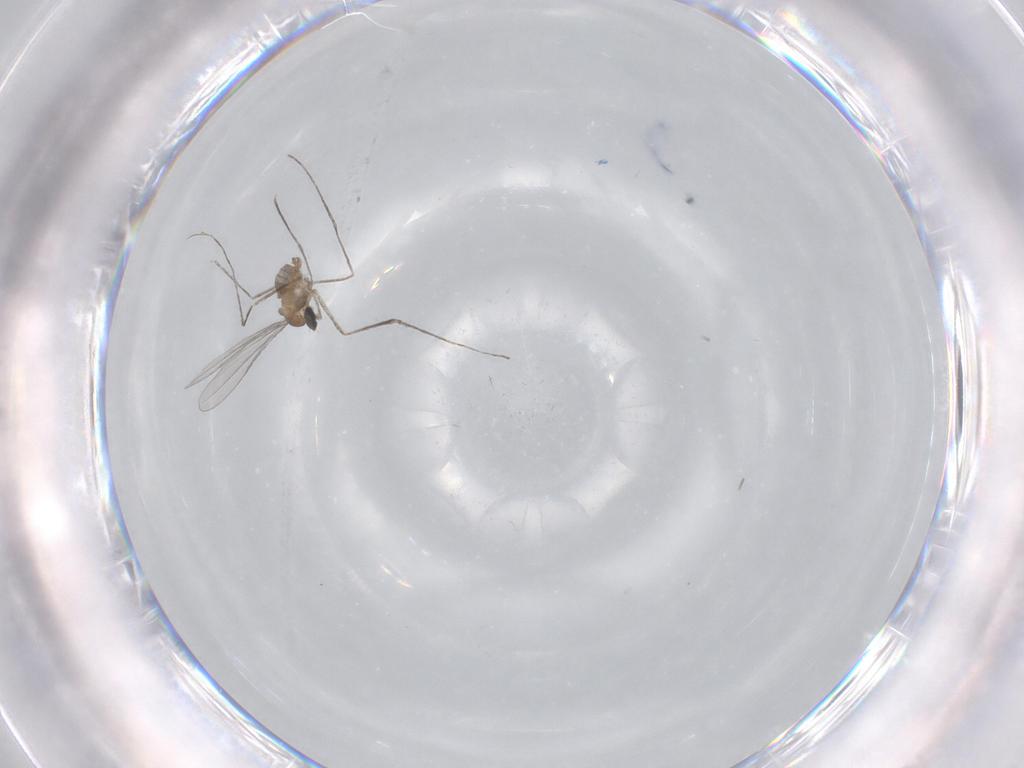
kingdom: Animalia
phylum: Arthropoda
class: Insecta
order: Diptera
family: Cecidomyiidae
